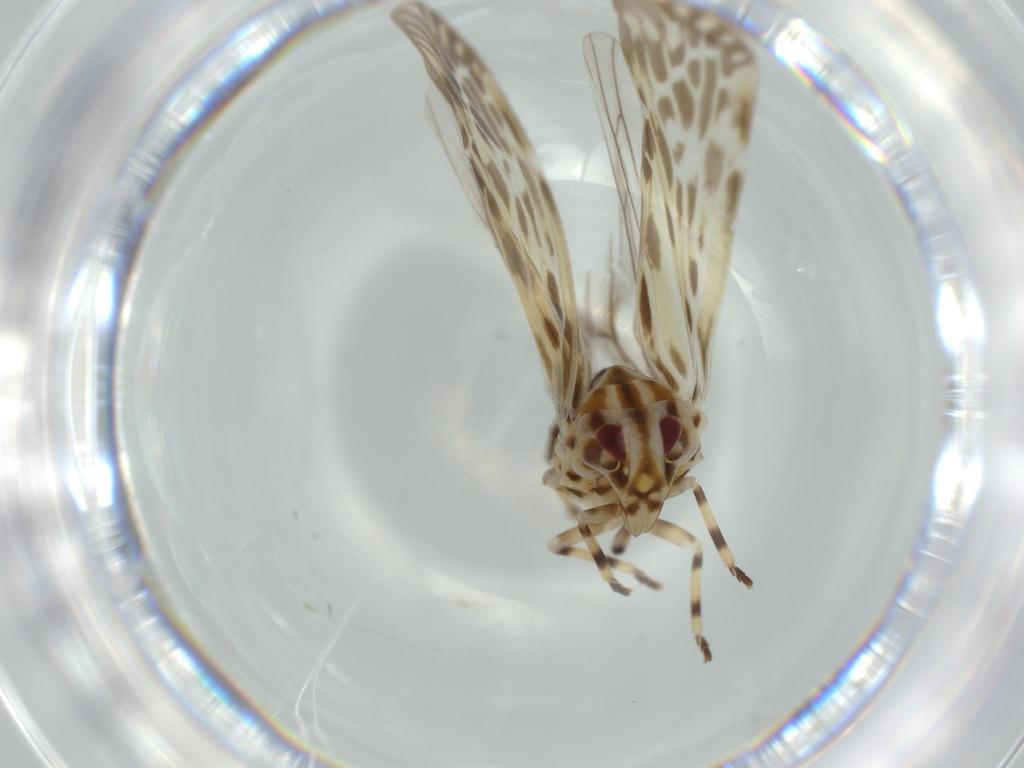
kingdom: Animalia
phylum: Arthropoda
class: Insecta
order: Hemiptera
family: Derbidae
